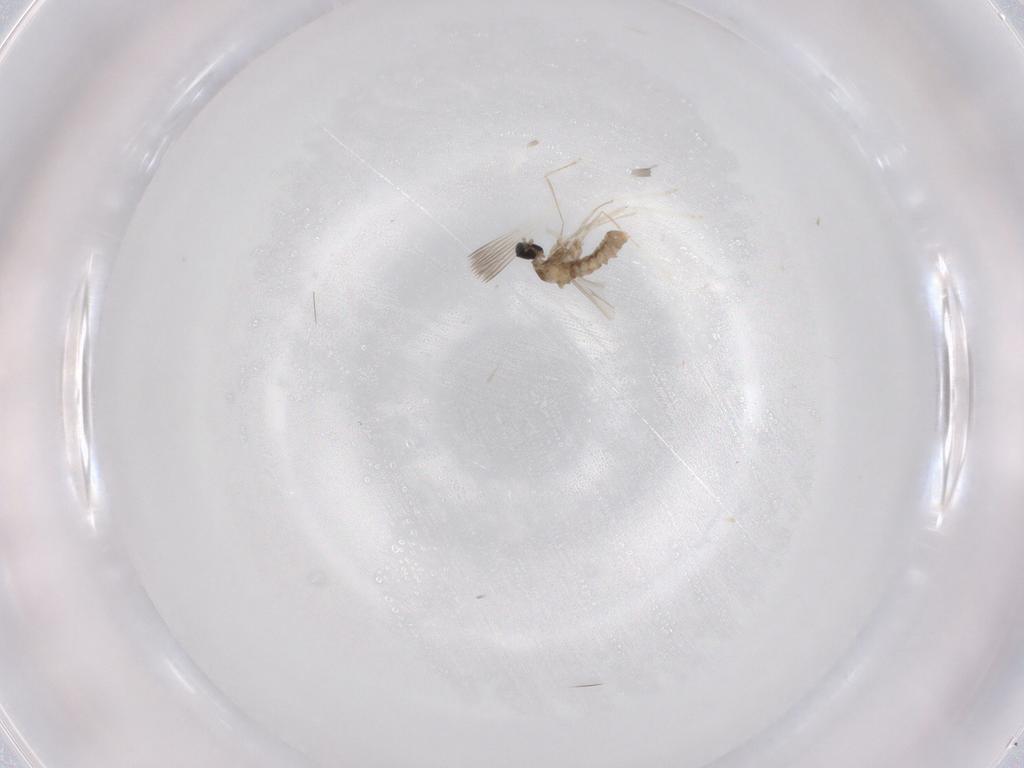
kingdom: Animalia
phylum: Arthropoda
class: Insecta
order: Diptera
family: Cecidomyiidae
